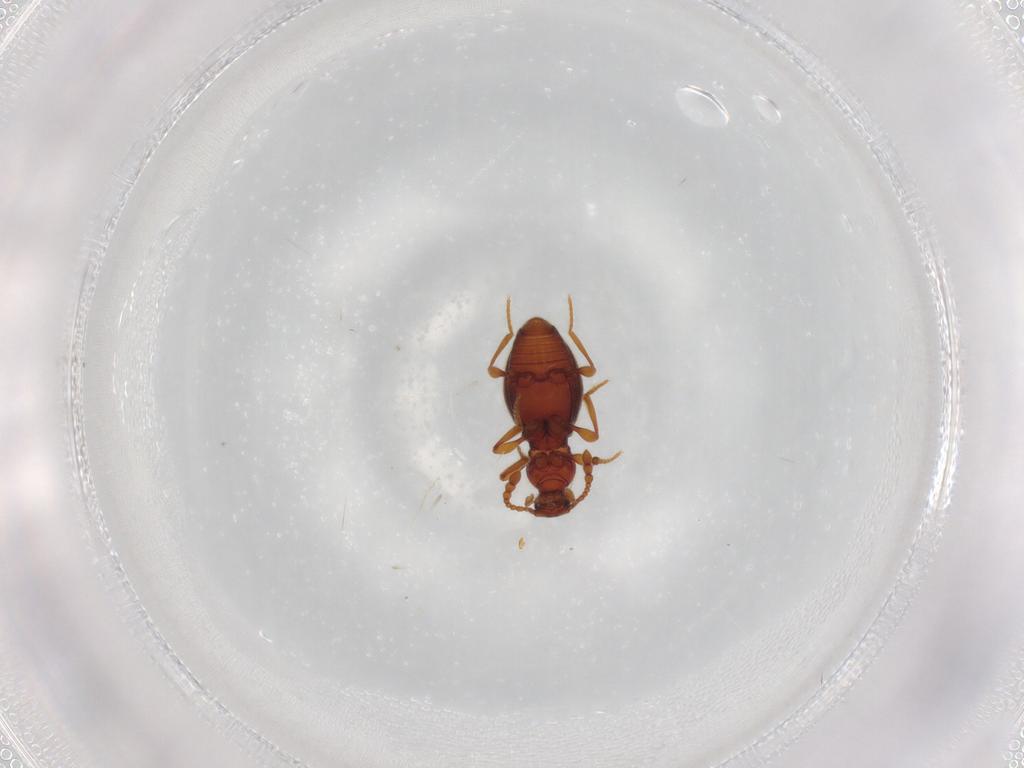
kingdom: Animalia
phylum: Arthropoda
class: Insecta
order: Coleoptera
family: Staphylinidae
